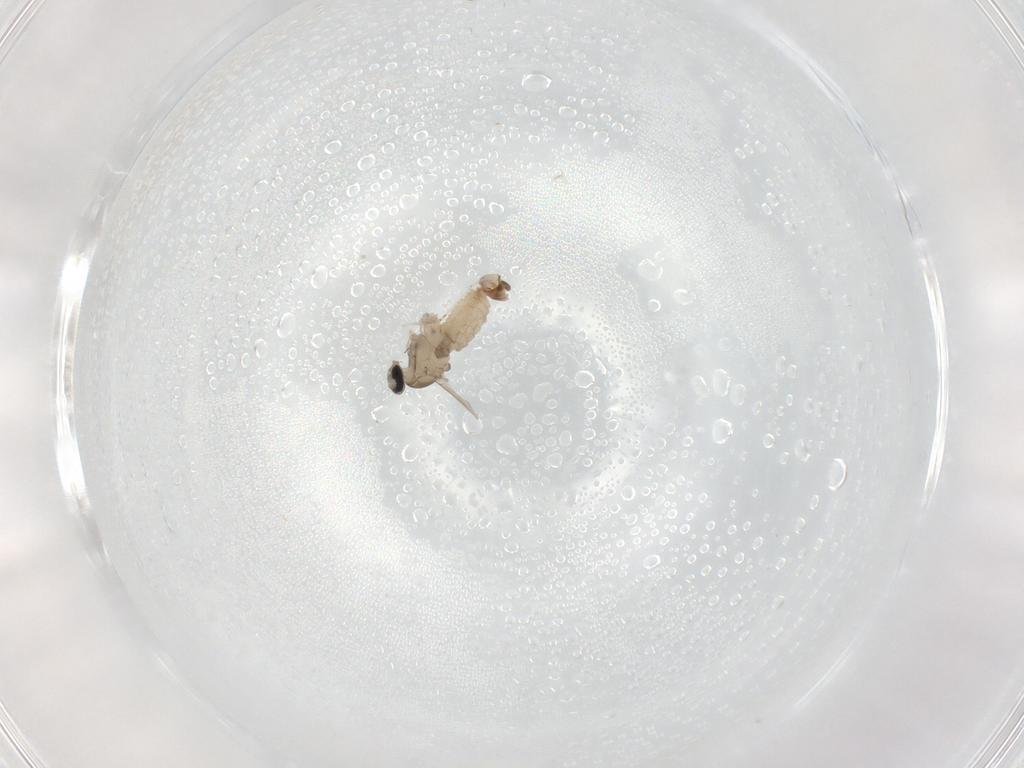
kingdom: Animalia
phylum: Arthropoda
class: Insecta
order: Diptera
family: Cecidomyiidae
